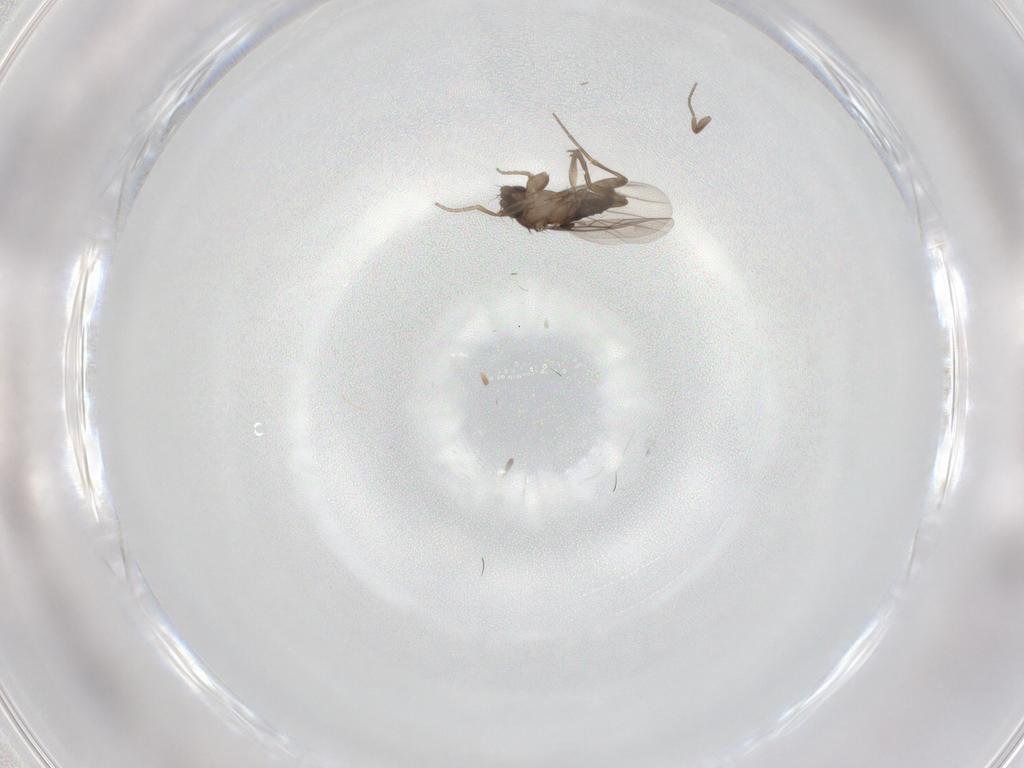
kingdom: Animalia
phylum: Arthropoda
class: Insecta
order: Diptera
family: Phoridae
